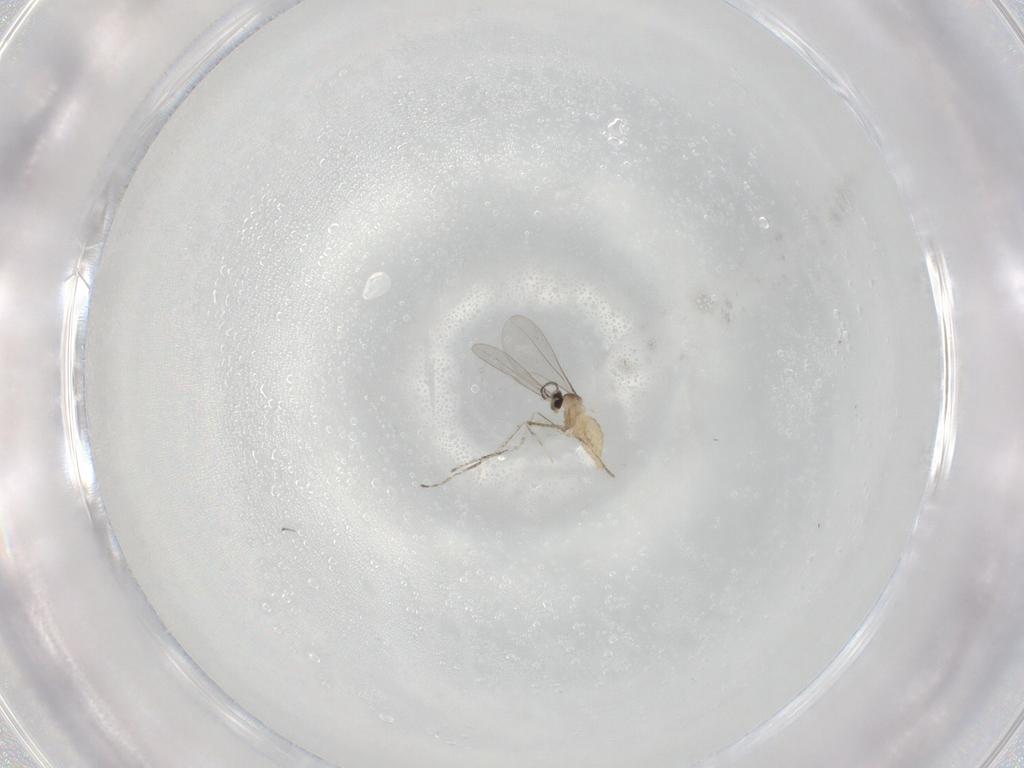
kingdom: Animalia
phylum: Arthropoda
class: Insecta
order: Diptera
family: Cecidomyiidae
